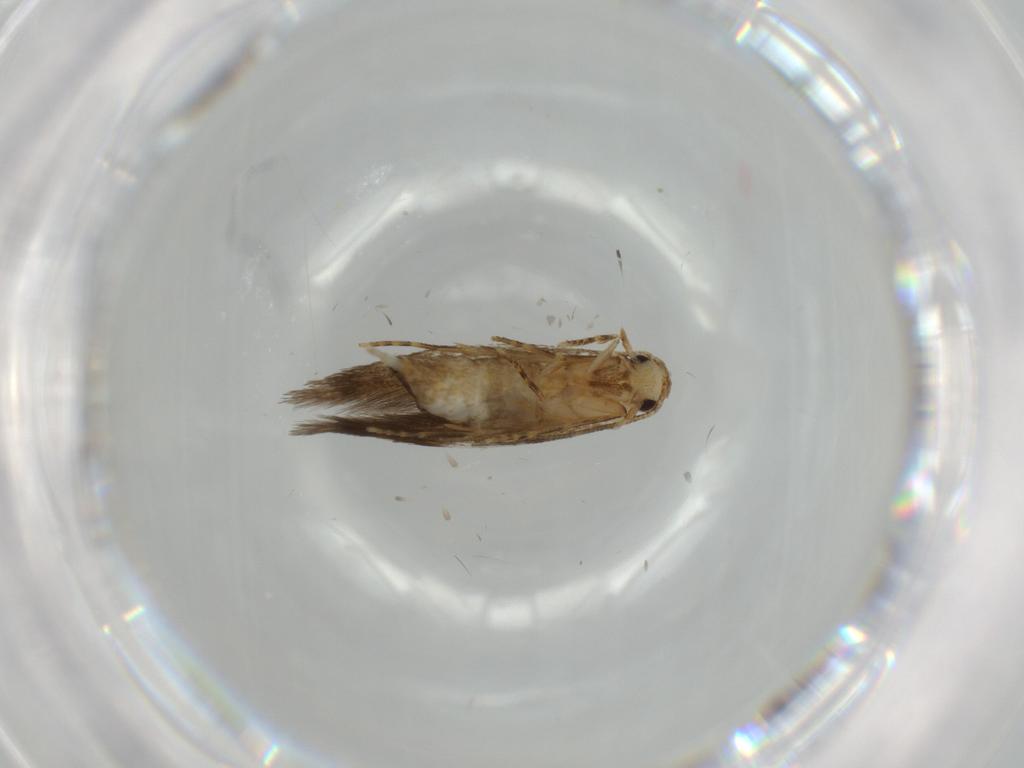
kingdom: Animalia
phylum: Arthropoda
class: Insecta
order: Lepidoptera
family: Tineidae
